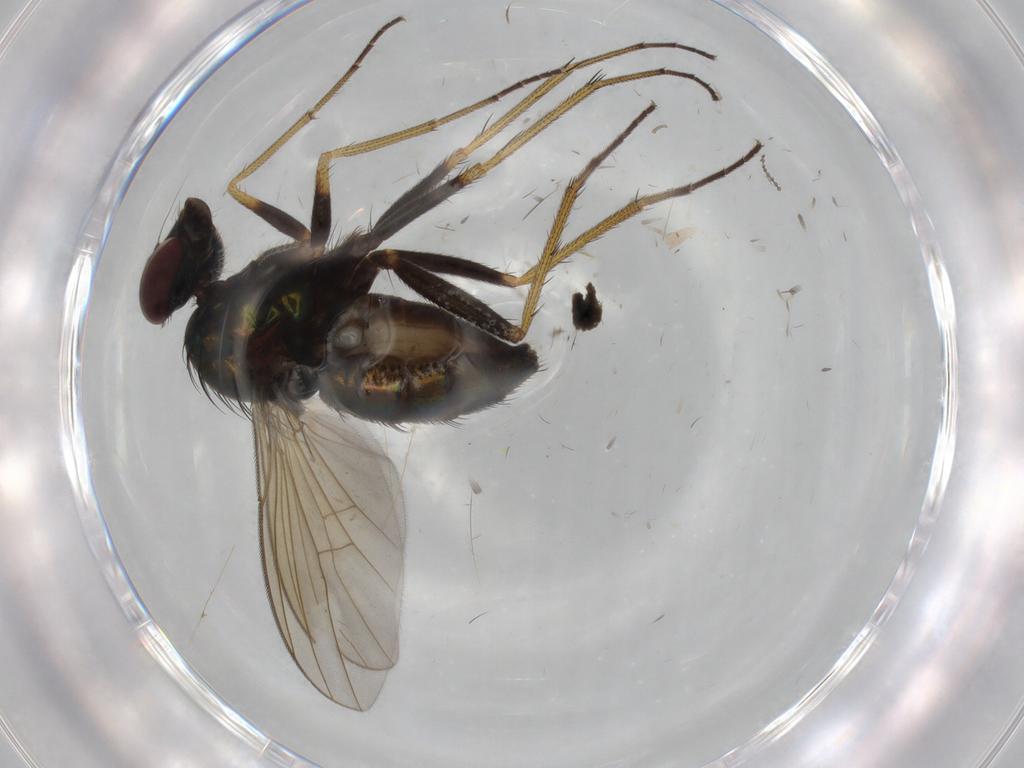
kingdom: Animalia
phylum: Arthropoda
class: Insecta
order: Diptera
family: Dolichopodidae
